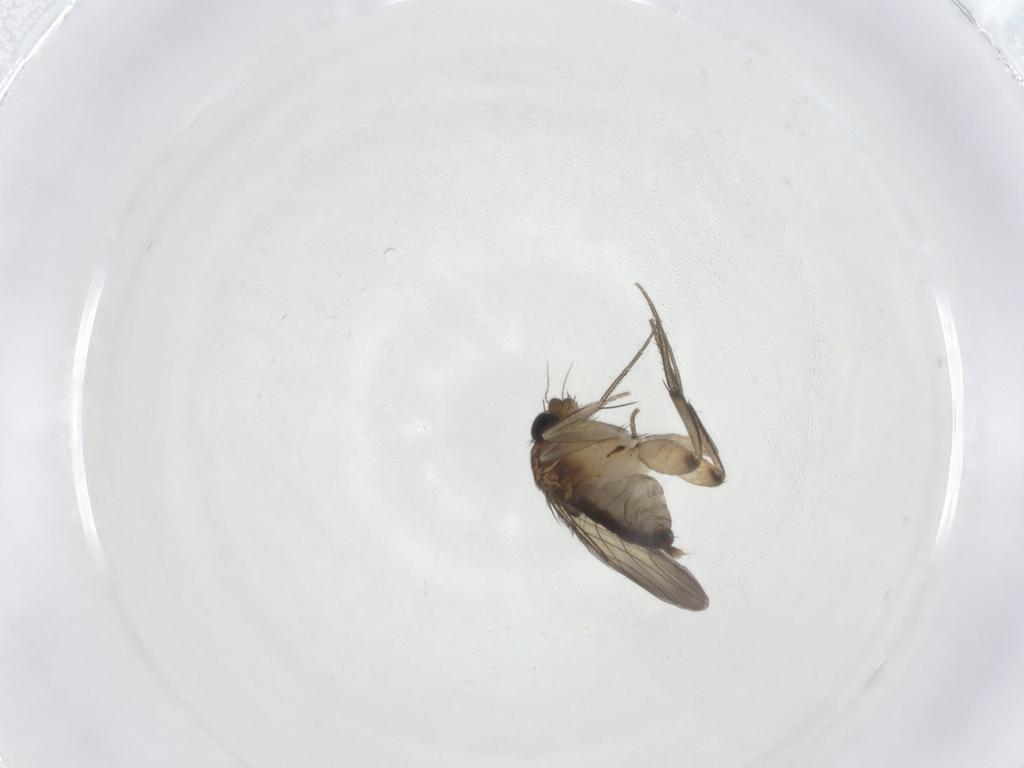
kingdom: Animalia
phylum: Arthropoda
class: Insecta
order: Diptera
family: Phoridae
